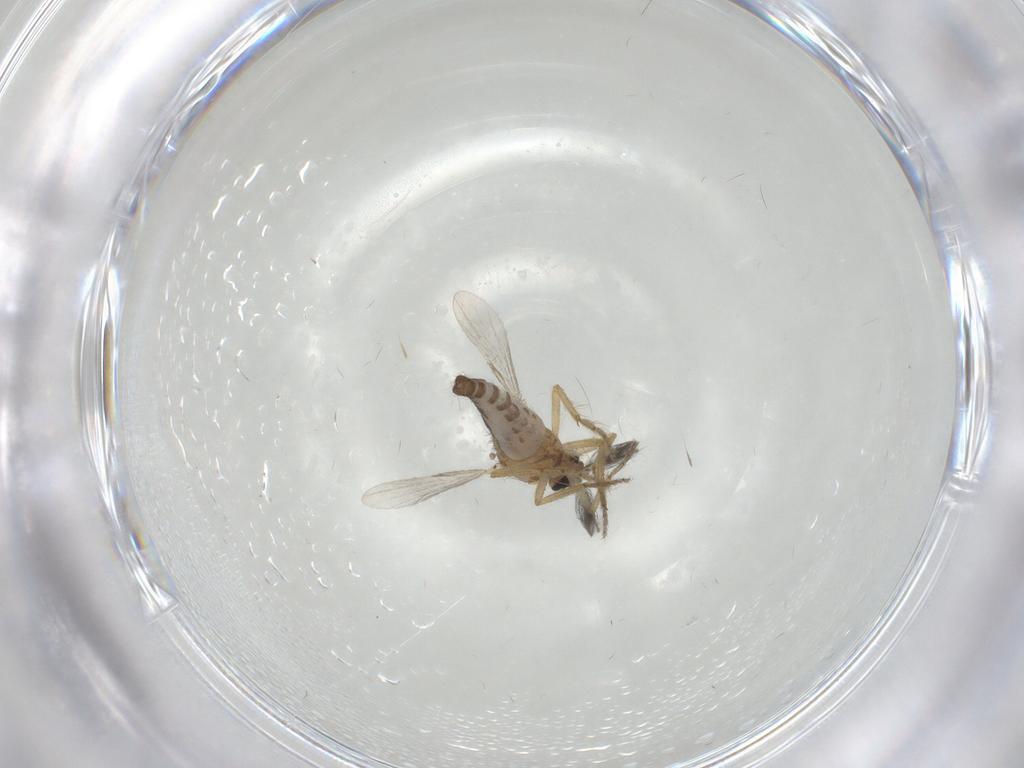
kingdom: Animalia
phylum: Arthropoda
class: Insecta
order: Diptera
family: Ceratopogonidae
